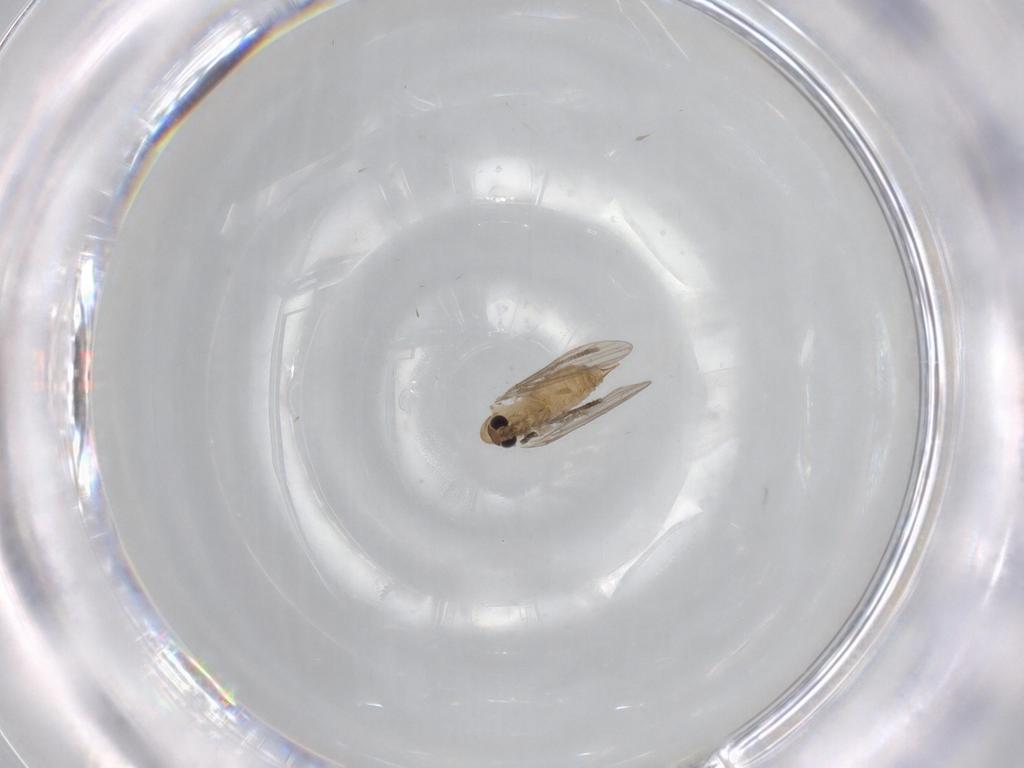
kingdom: Animalia
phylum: Arthropoda
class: Insecta
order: Diptera
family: Psychodidae
